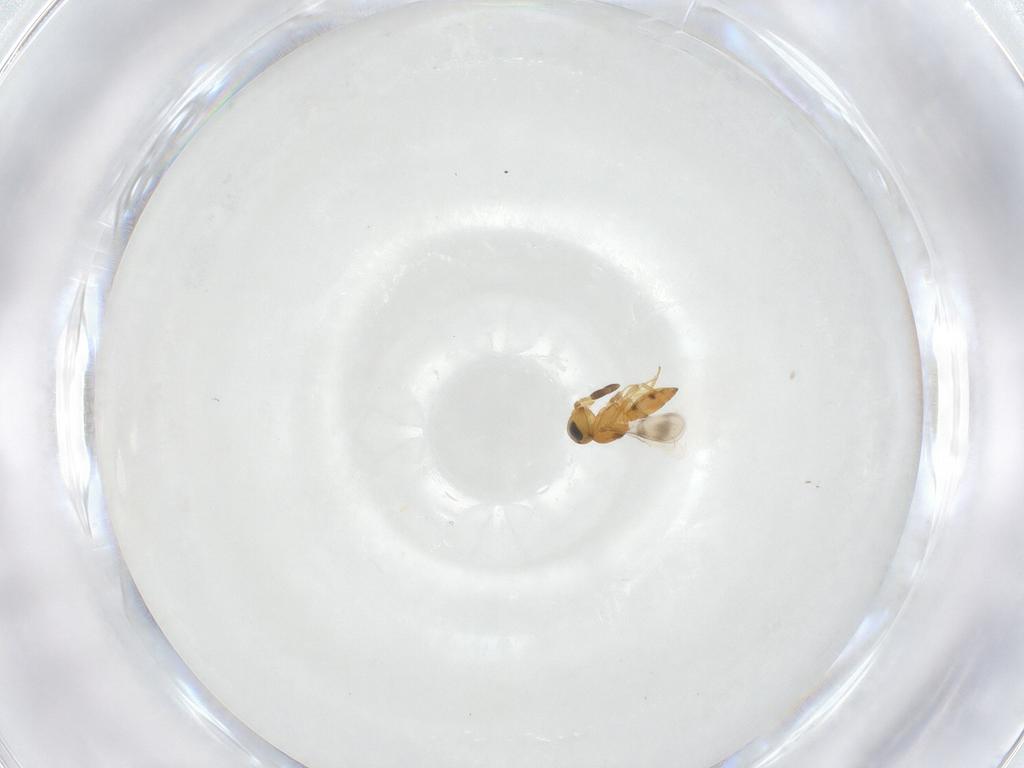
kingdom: Animalia
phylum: Arthropoda
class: Insecta
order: Hymenoptera
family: Scelionidae
